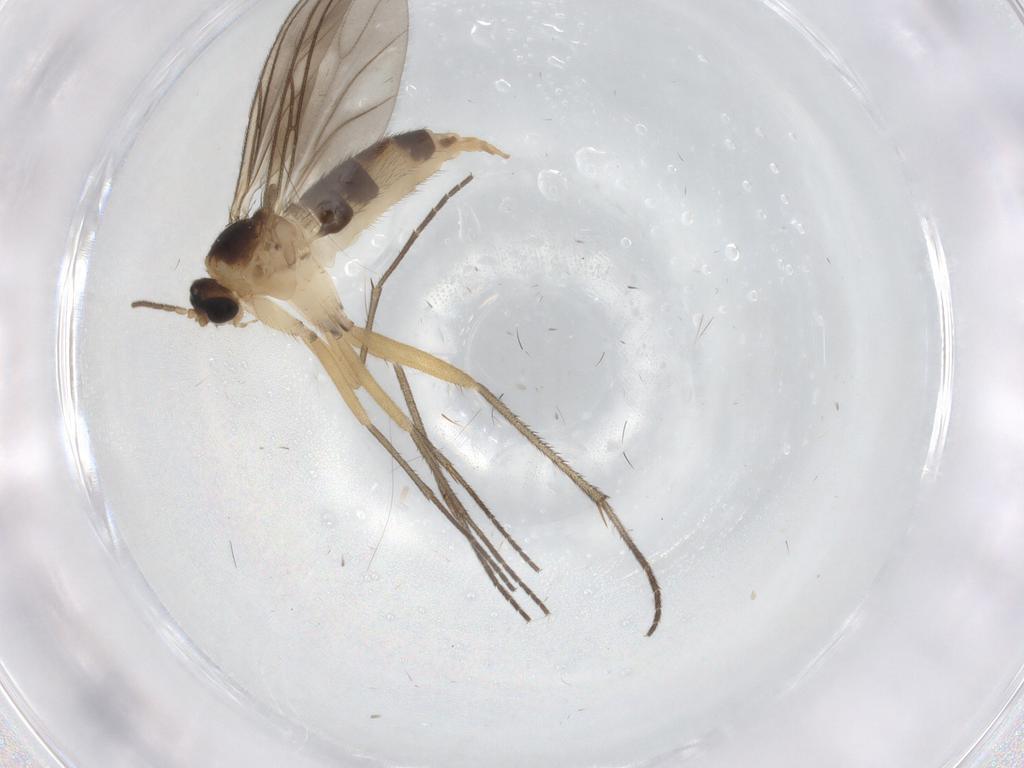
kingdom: Animalia
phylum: Arthropoda
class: Insecta
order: Diptera
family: Sciaridae
